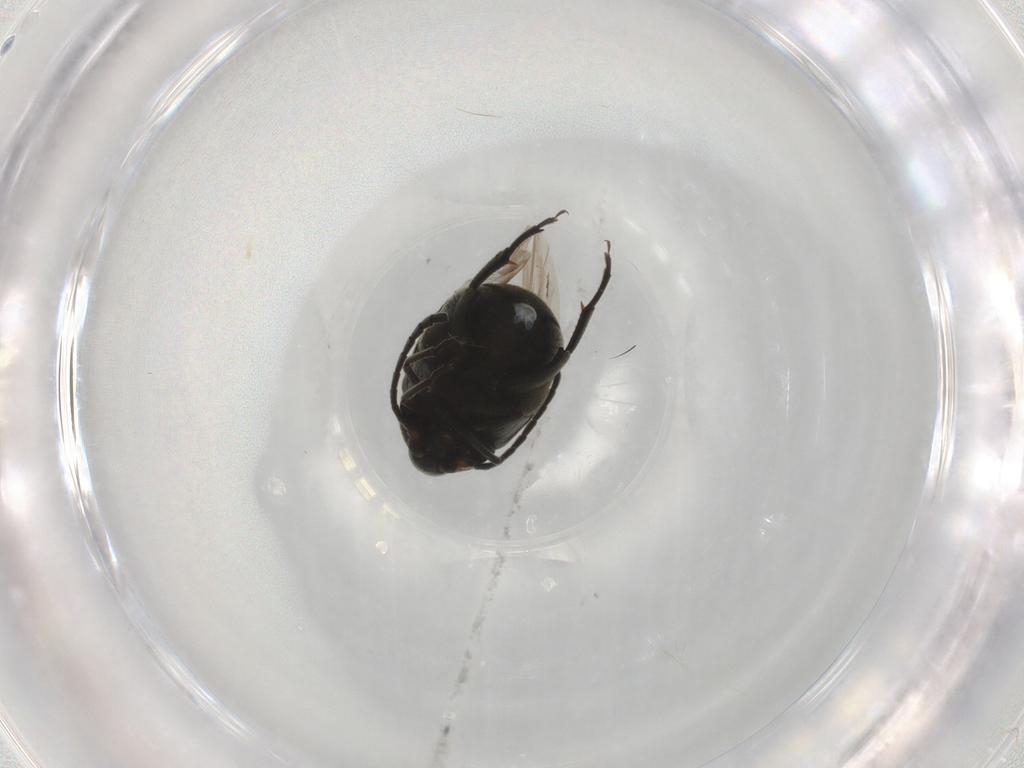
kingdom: Animalia
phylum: Arthropoda
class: Insecta
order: Coleoptera
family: Chrysomelidae
